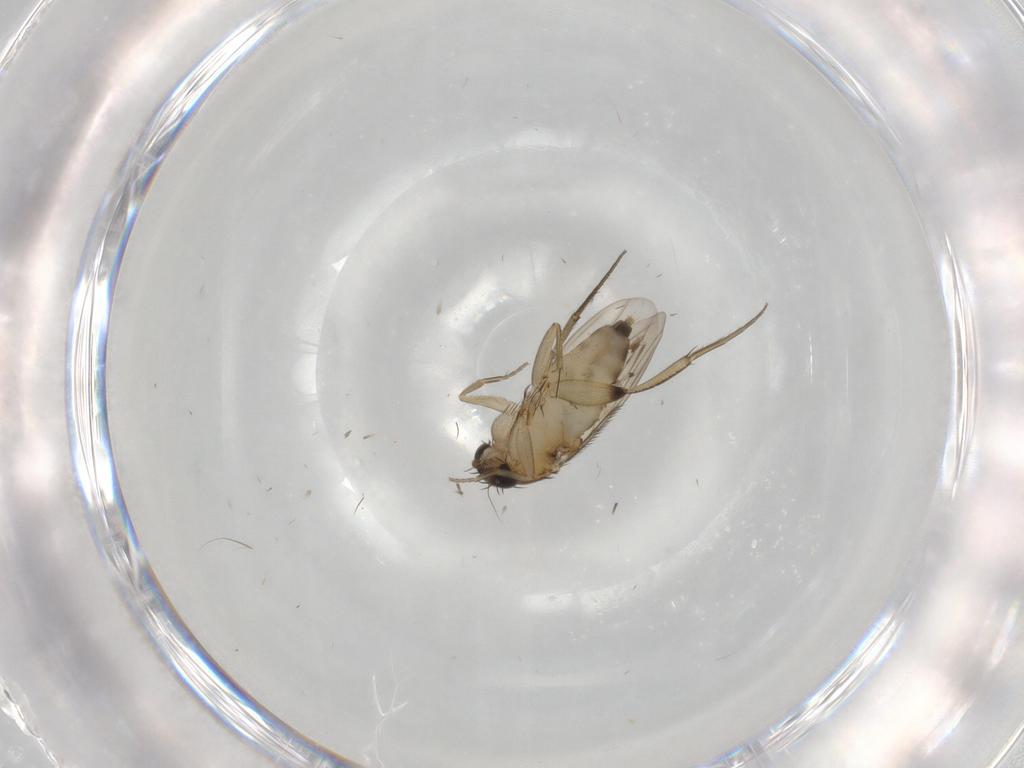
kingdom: Animalia
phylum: Arthropoda
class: Insecta
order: Diptera
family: Phoridae
